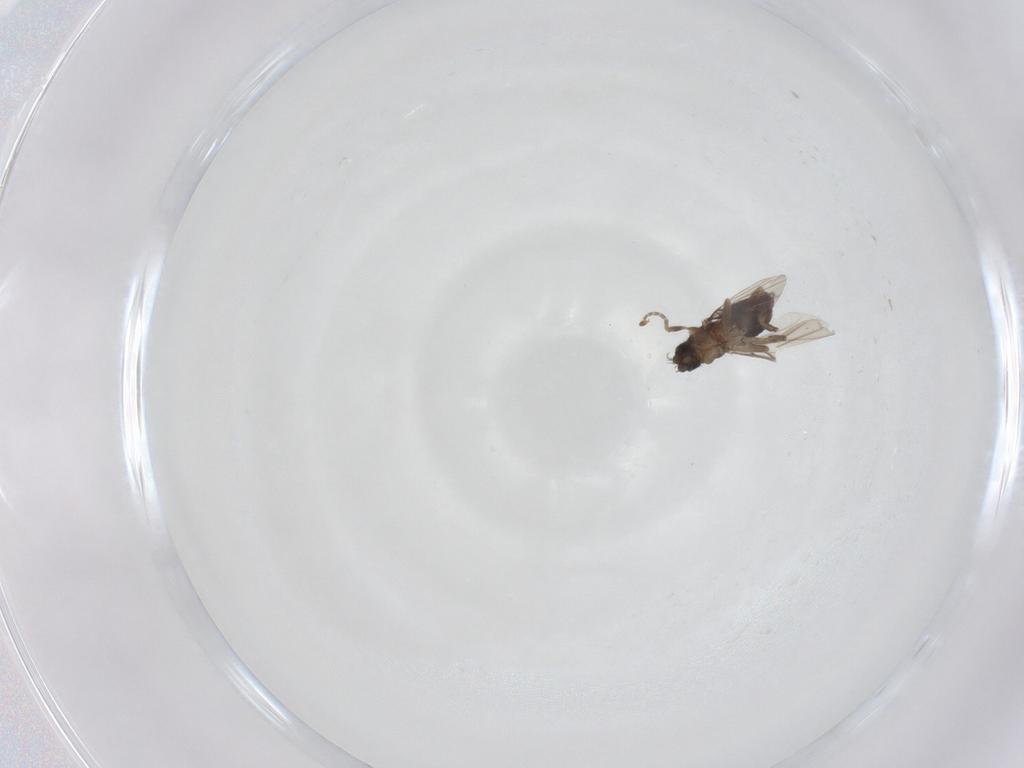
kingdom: Animalia
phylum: Arthropoda
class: Insecta
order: Diptera
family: Phoridae
